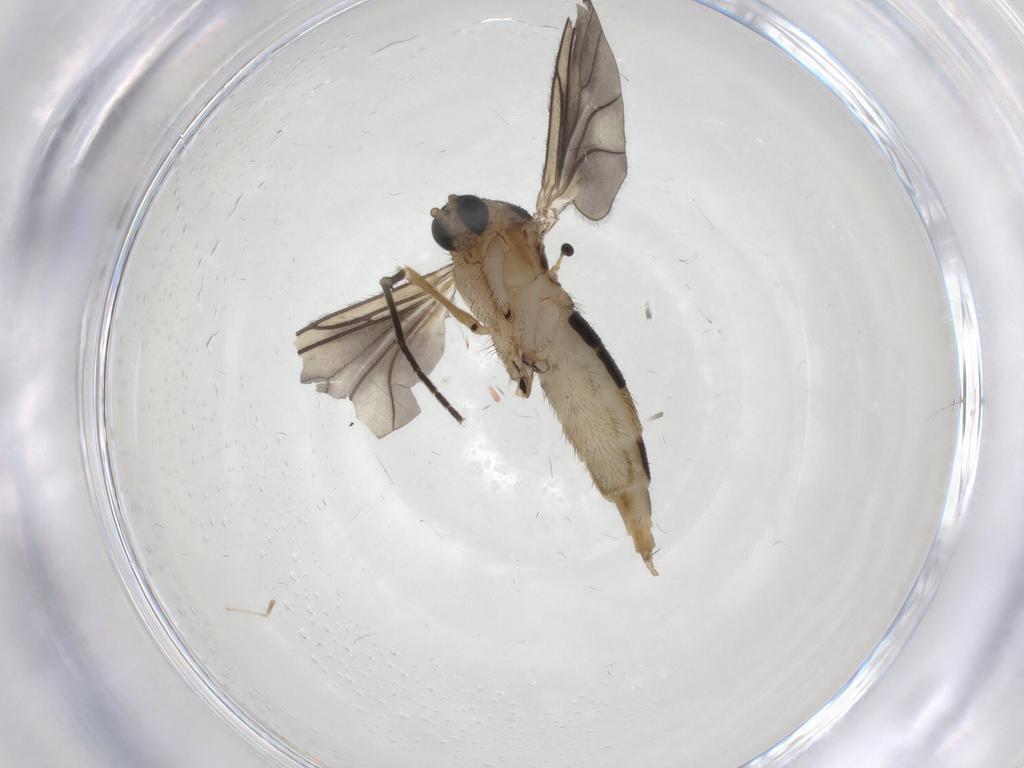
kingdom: Animalia
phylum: Arthropoda
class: Insecta
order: Diptera
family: Sciaridae
